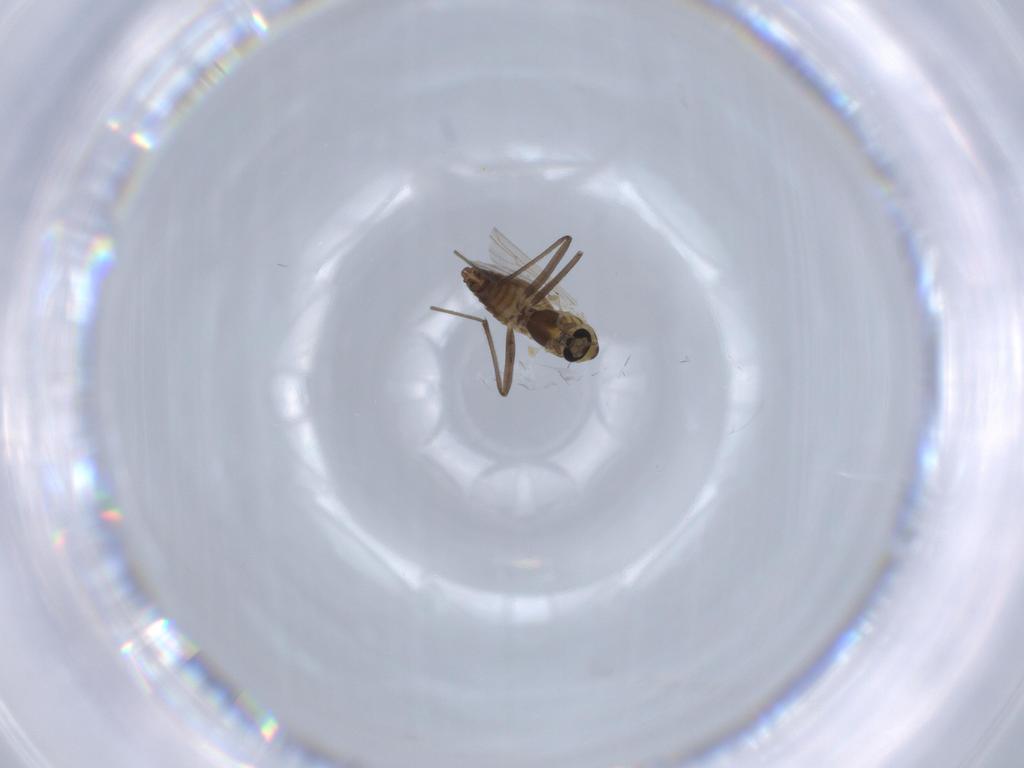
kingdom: Animalia
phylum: Arthropoda
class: Insecta
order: Diptera
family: Chironomidae
